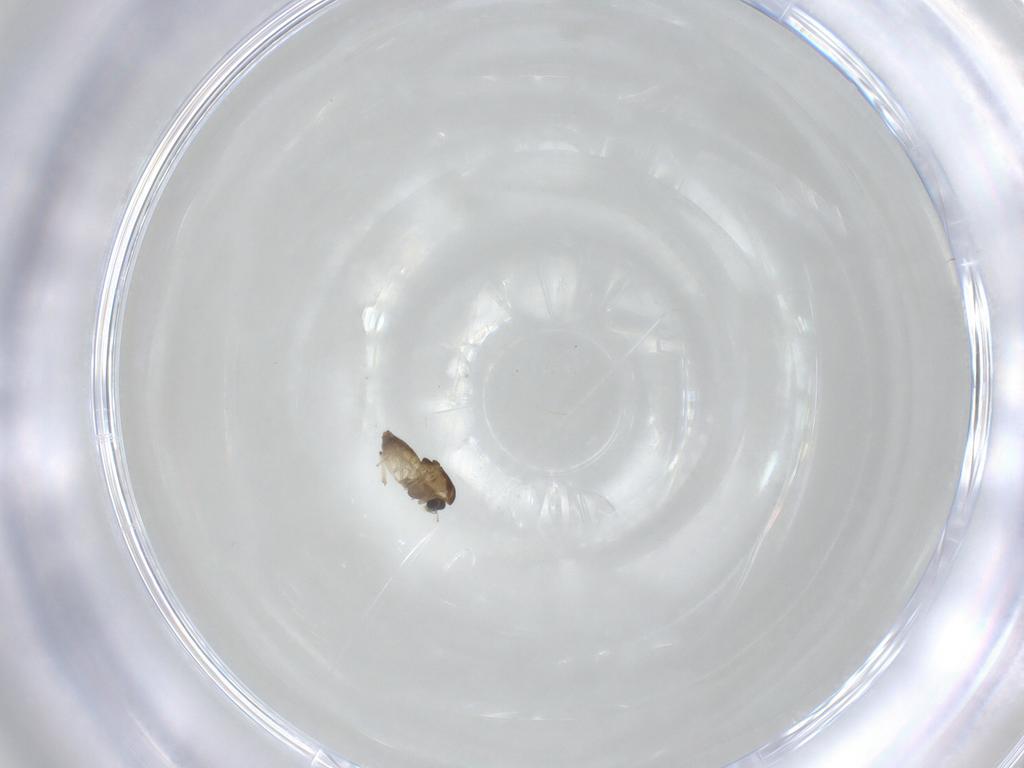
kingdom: Animalia
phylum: Arthropoda
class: Insecta
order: Diptera
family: Chironomidae
